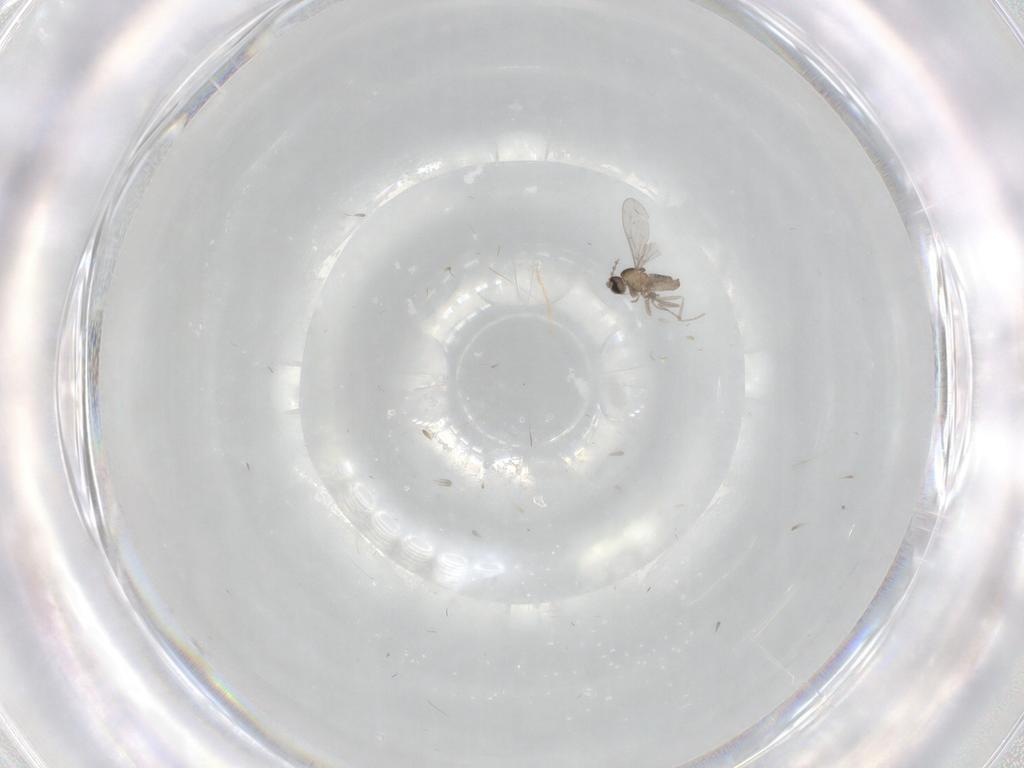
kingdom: Animalia
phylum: Arthropoda
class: Insecta
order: Diptera
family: Cecidomyiidae
